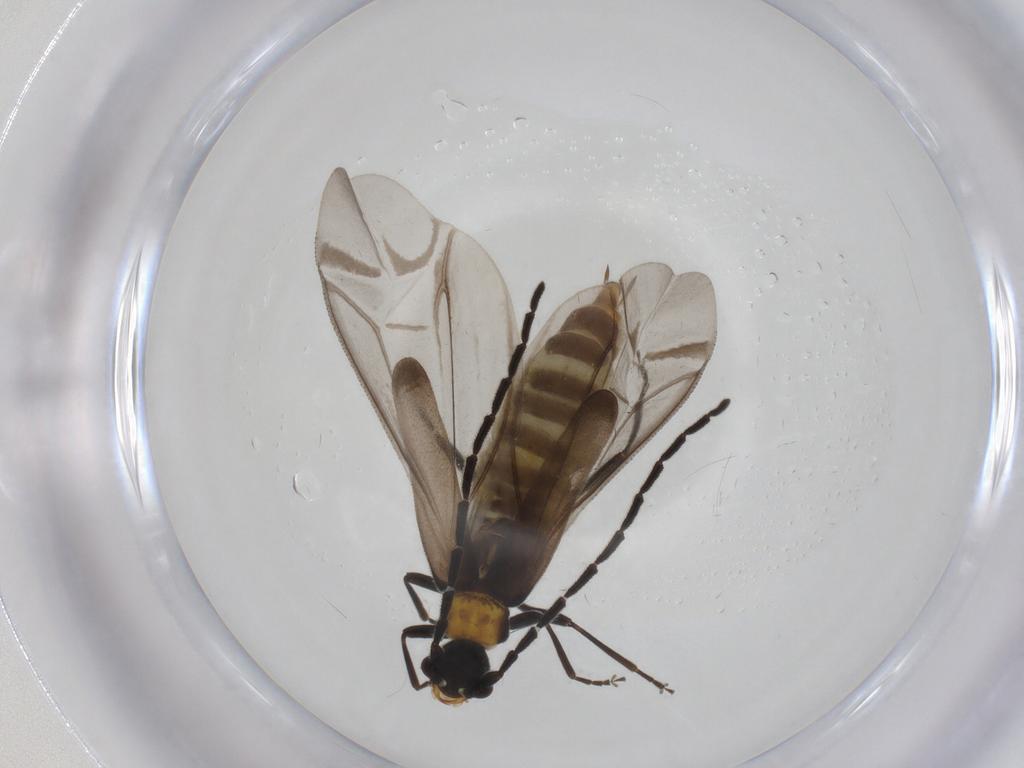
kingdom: Animalia
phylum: Arthropoda
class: Insecta
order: Coleoptera
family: Cantharidae
